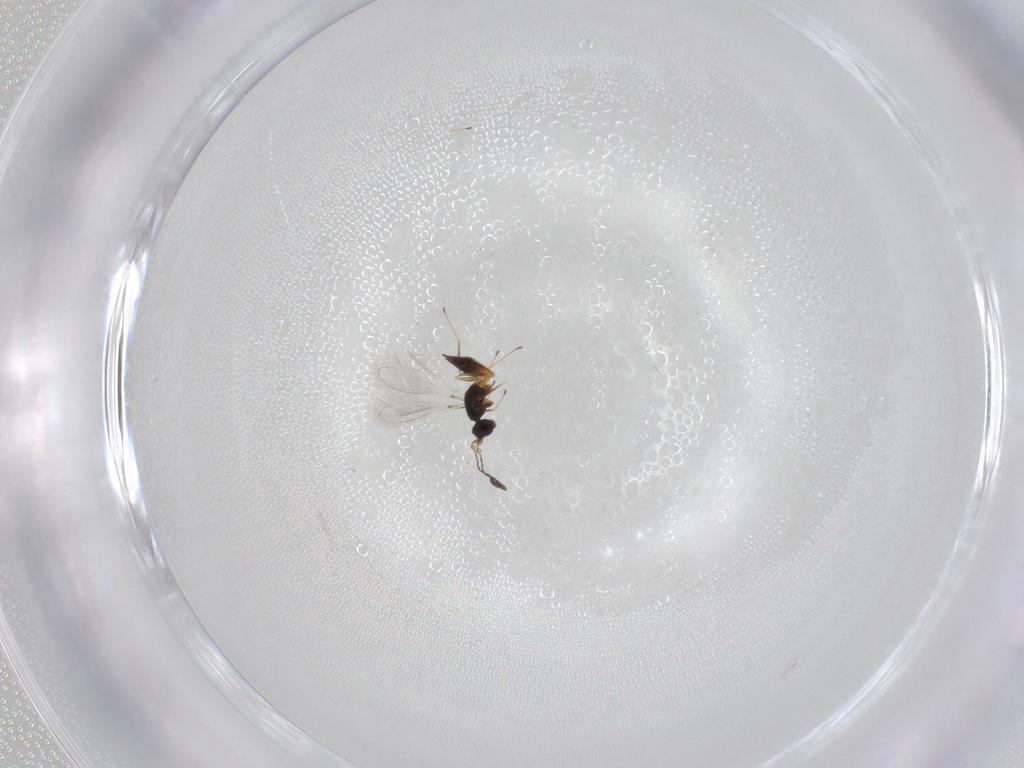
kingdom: Animalia
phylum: Arthropoda
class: Insecta
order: Hymenoptera
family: Mymaridae
